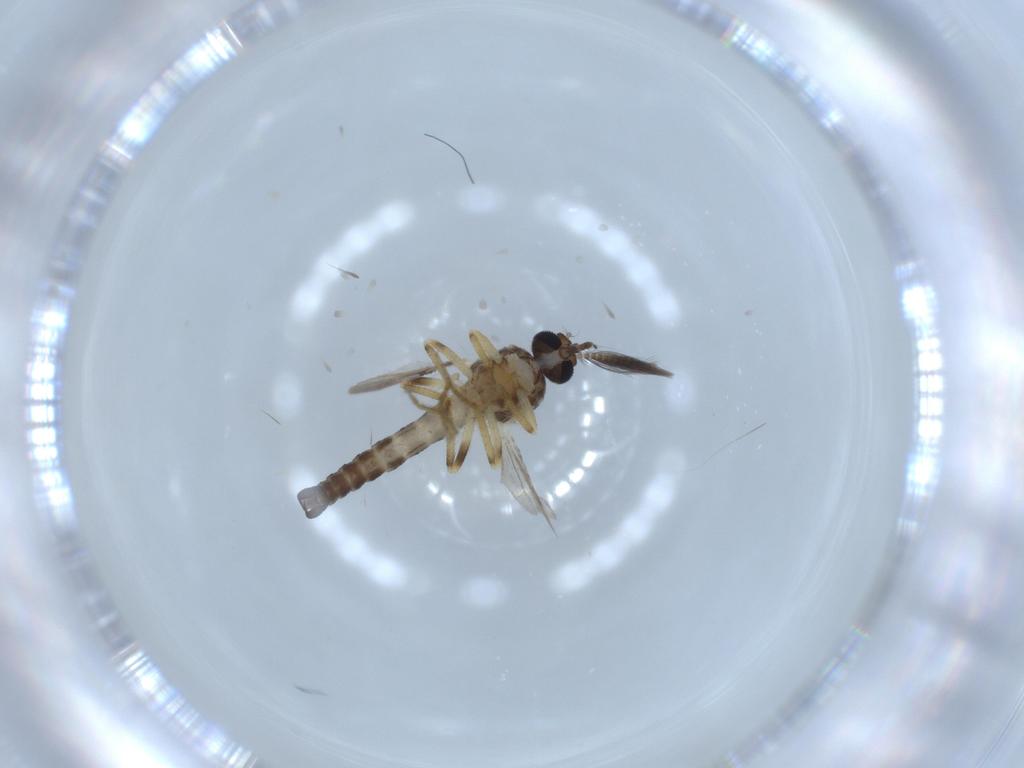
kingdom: Animalia
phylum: Arthropoda
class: Insecta
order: Diptera
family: Ceratopogonidae
